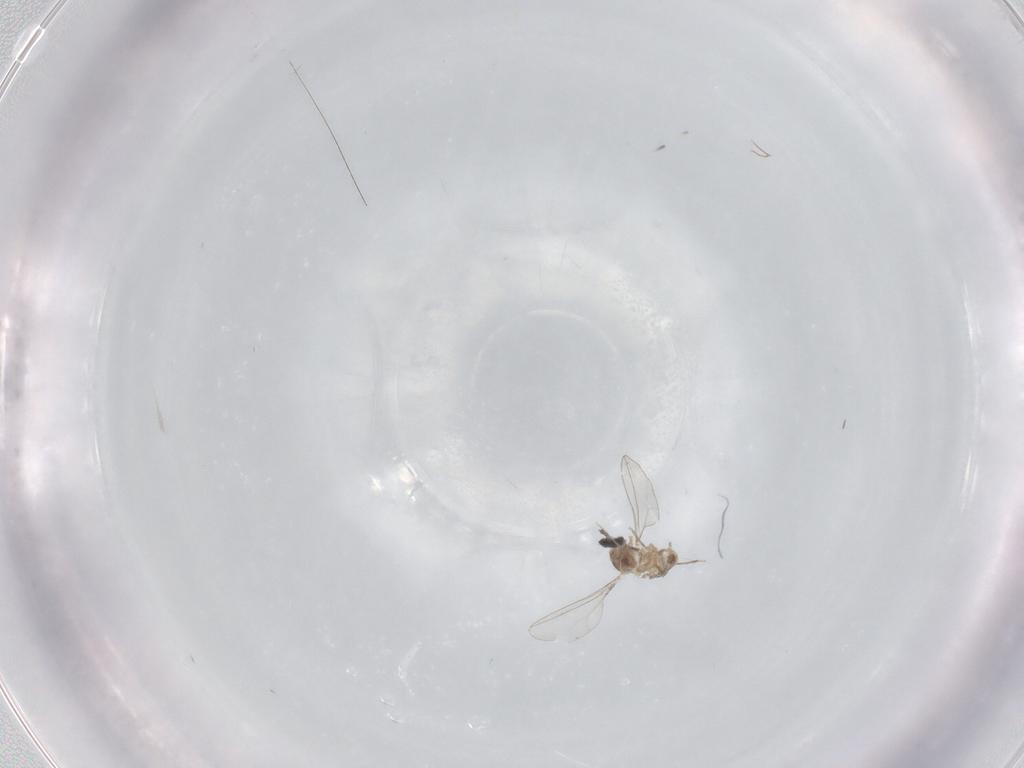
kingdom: Animalia
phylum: Arthropoda
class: Insecta
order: Diptera
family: Cecidomyiidae
